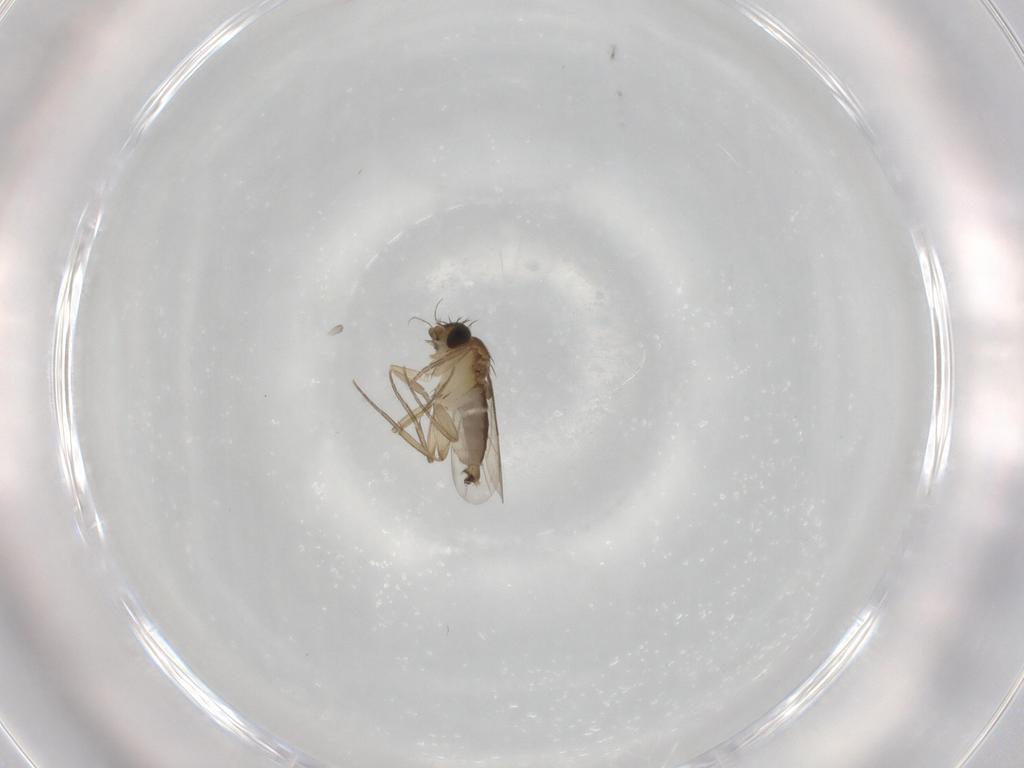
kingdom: Animalia
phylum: Arthropoda
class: Insecta
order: Diptera
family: Phoridae
